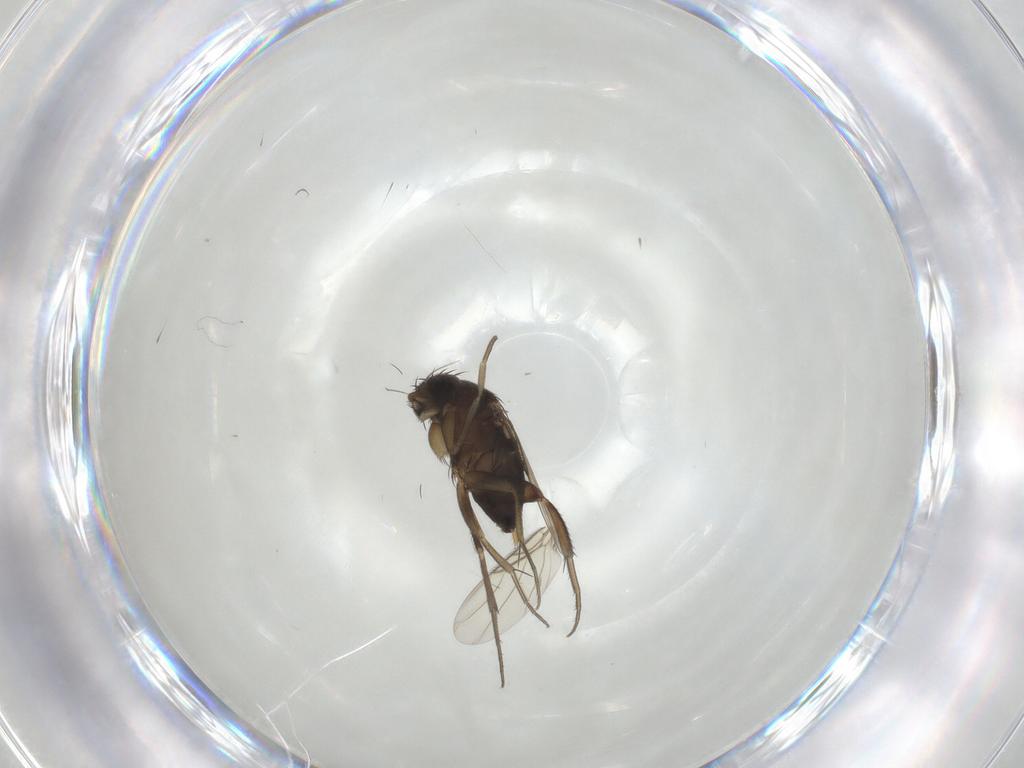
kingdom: Animalia
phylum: Arthropoda
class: Insecta
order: Diptera
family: Phoridae
